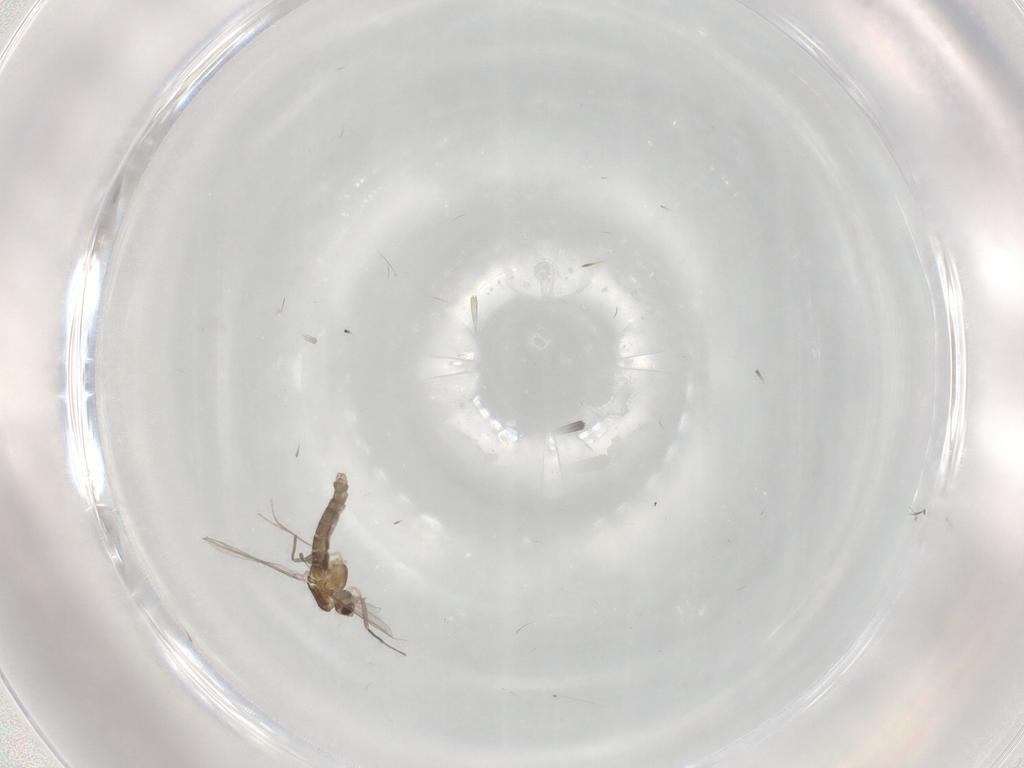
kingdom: Animalia
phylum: Arthropoda
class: Insecta
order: Diptera
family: Chironomidae
